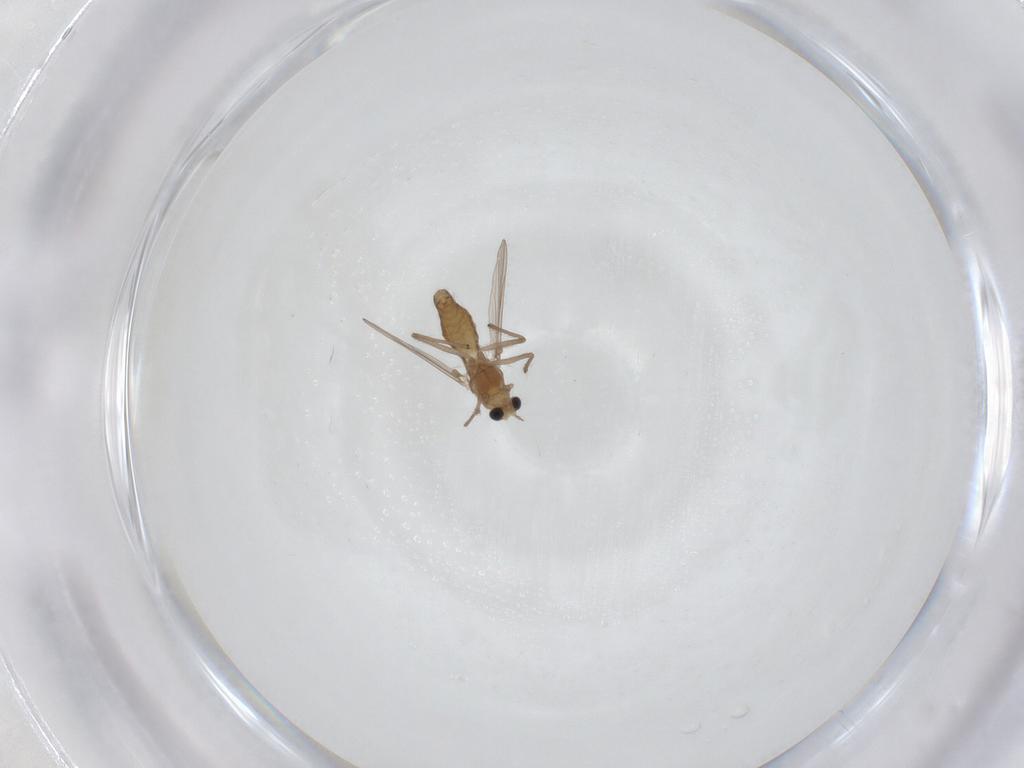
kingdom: Animalia
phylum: Arthropoda
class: Insecta
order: Diptera
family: Chironomidae
